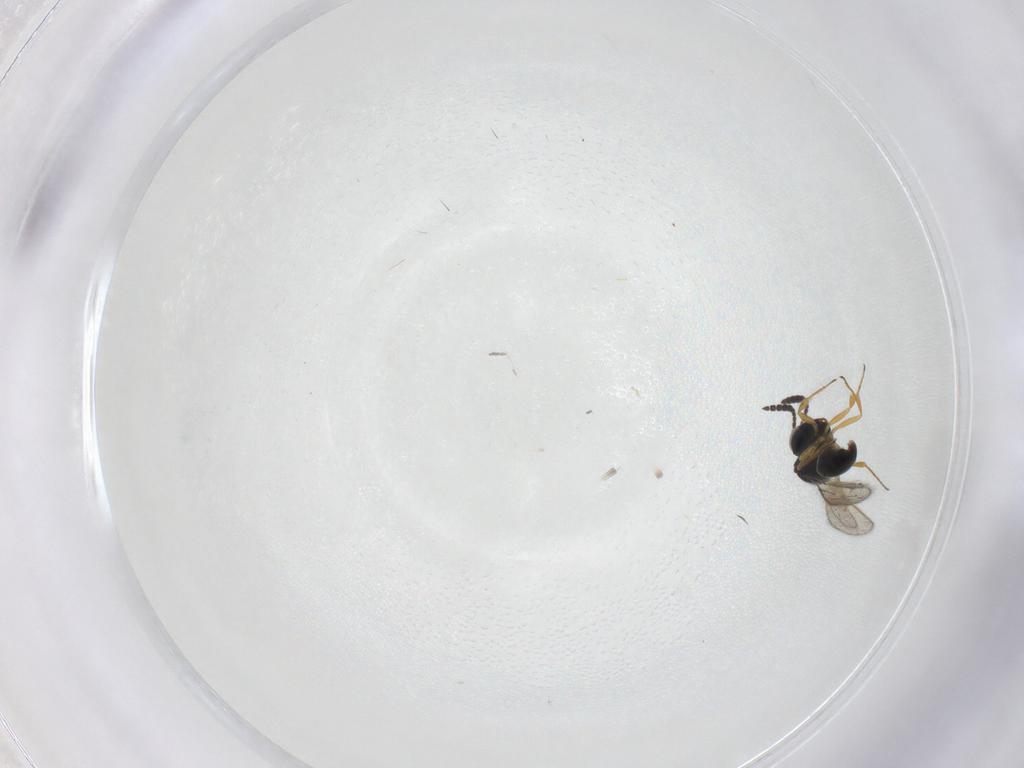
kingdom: Animalia
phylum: Arthropoda
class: Insecta
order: Hymenoptera
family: Scelionidae
